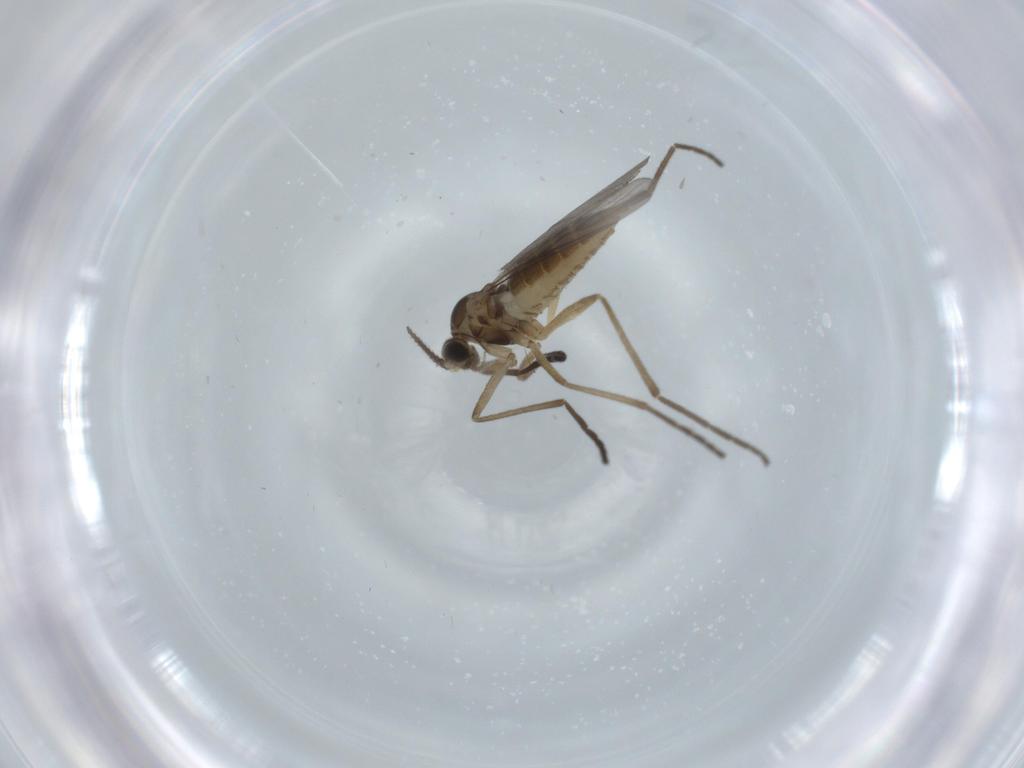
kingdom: Animalia
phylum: Arthropoda
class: Insecta
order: Diptera
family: Cecidomyiidae
